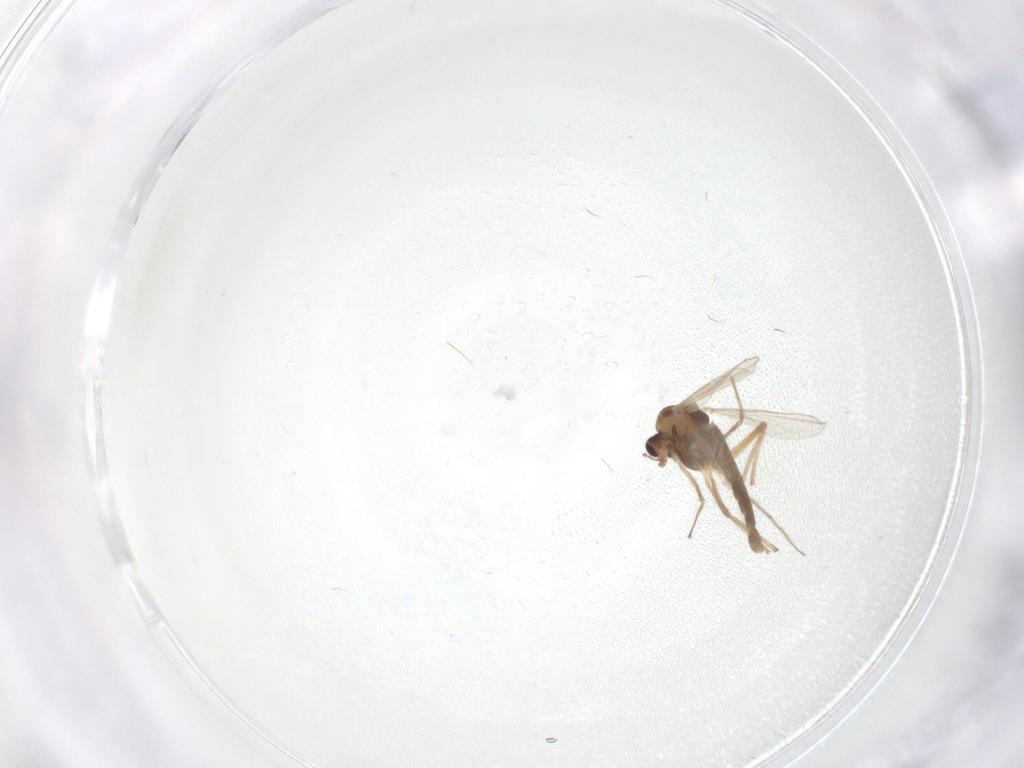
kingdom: Animalia
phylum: Arthropoda
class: Insecta
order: Diptera
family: Chironomidae
